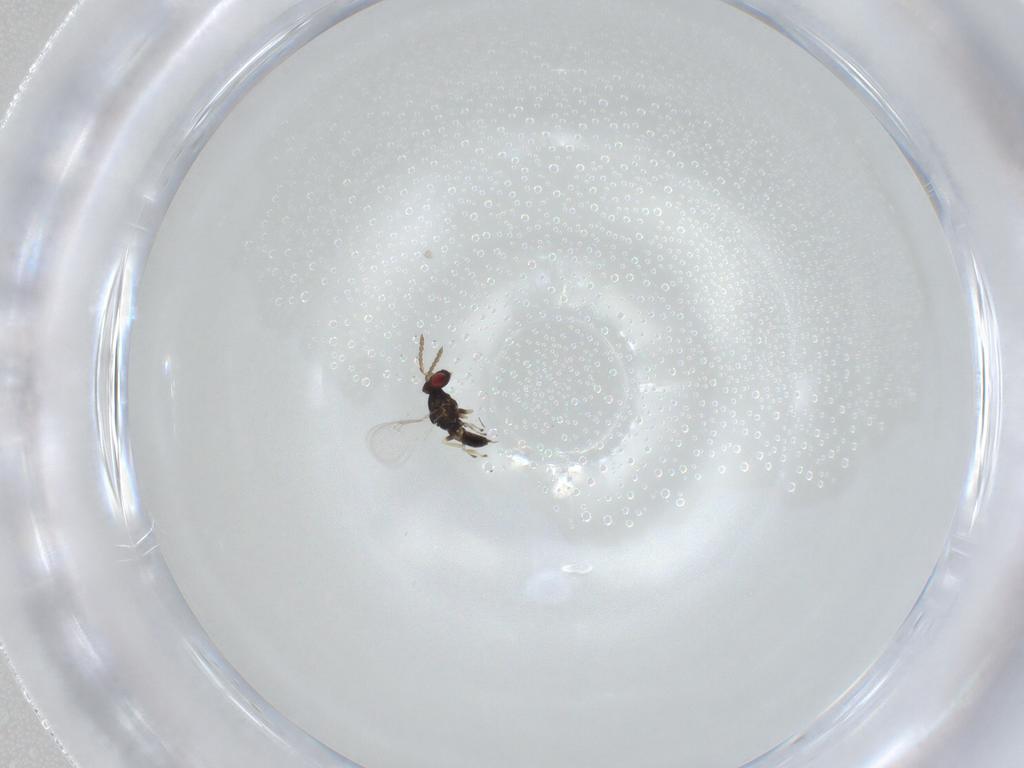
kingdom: Animalia
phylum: Arthropoda
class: Insecta
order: Hymenoptera
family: Eulophidae
